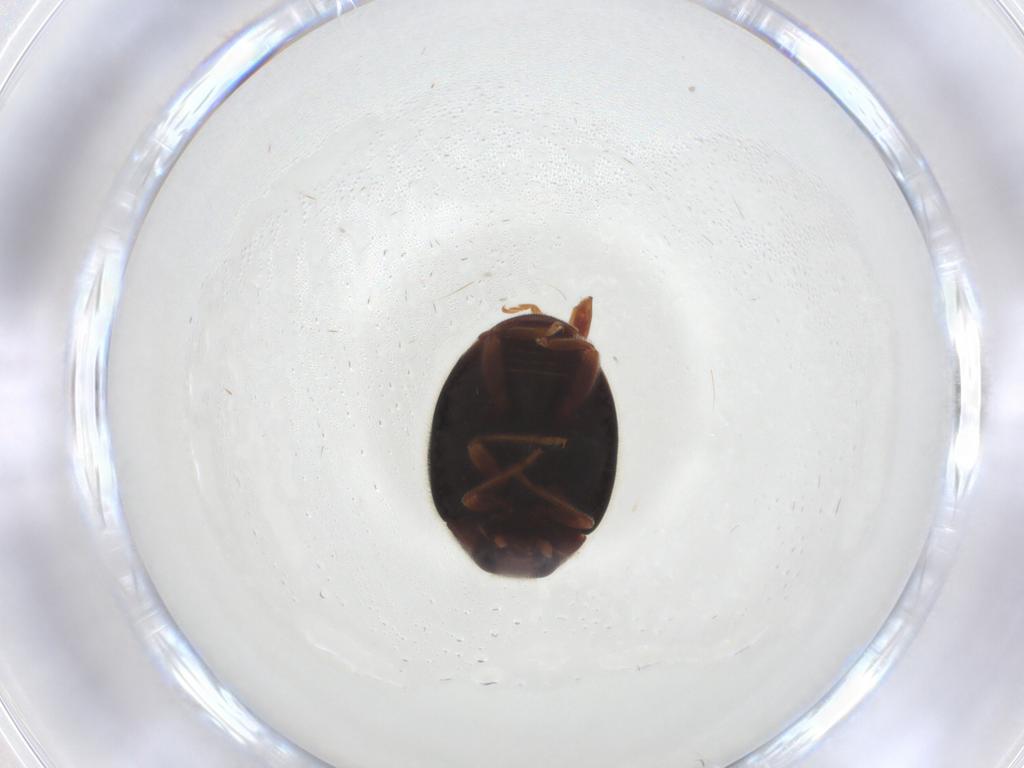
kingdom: Animalia
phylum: Arthropoda
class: Insecta
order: Coleoptera
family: Coccinellidae
